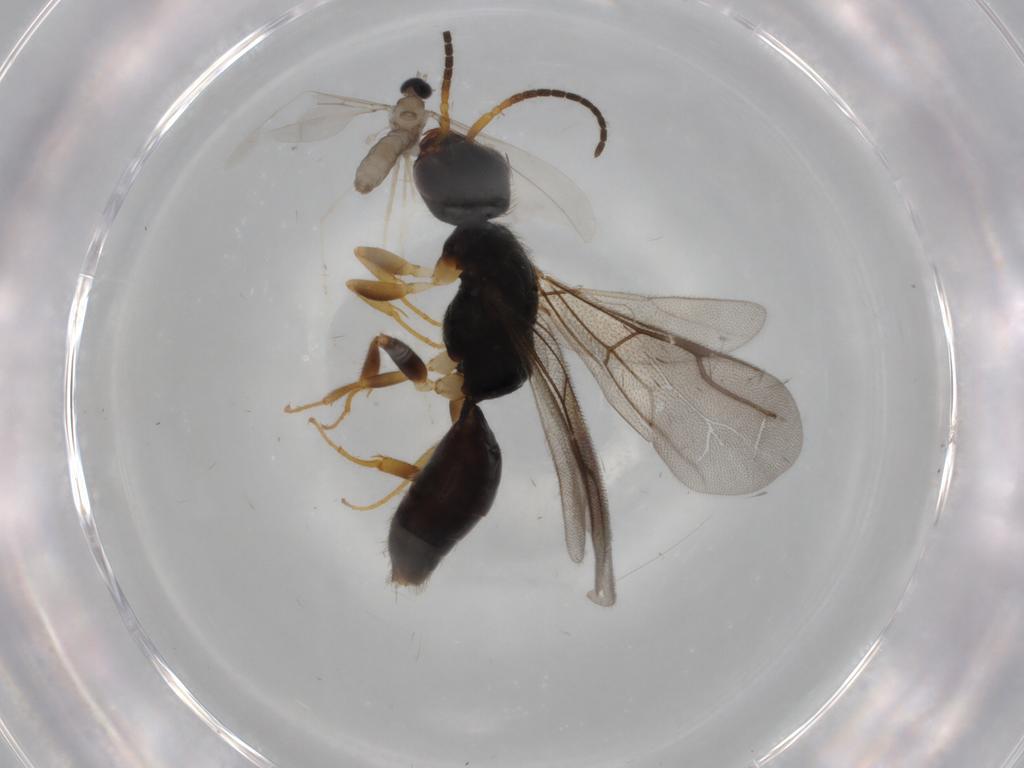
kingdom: Animalia
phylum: Arthropoda
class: Insecta
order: Diptera
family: Cecidomyiidae
